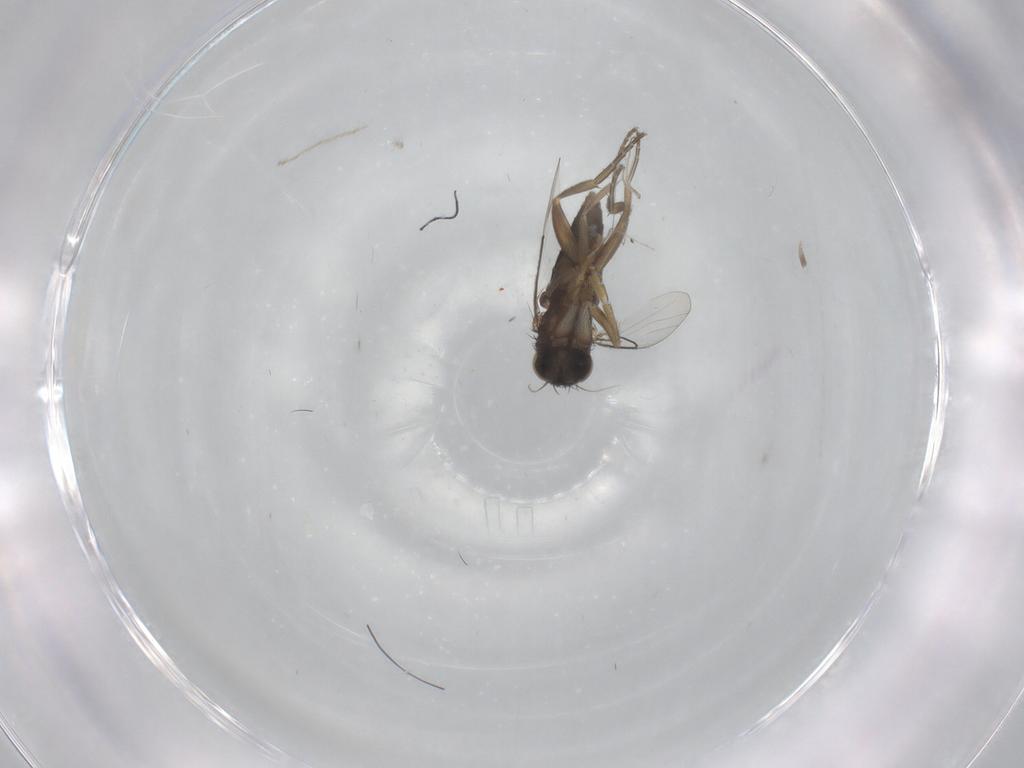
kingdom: Animalia
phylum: Arthropoda
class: Insecta
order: Diptera
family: Phoridae
